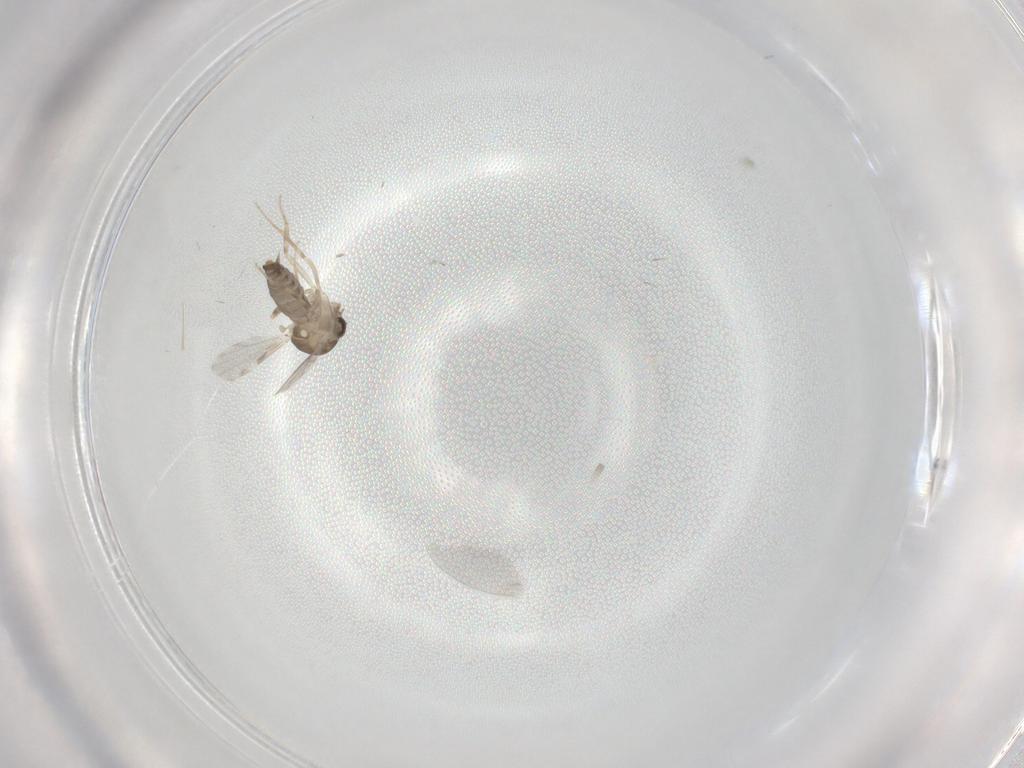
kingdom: Animalia
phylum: Arthropoda
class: Insecta
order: Diptera
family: Ceratopogonidae
